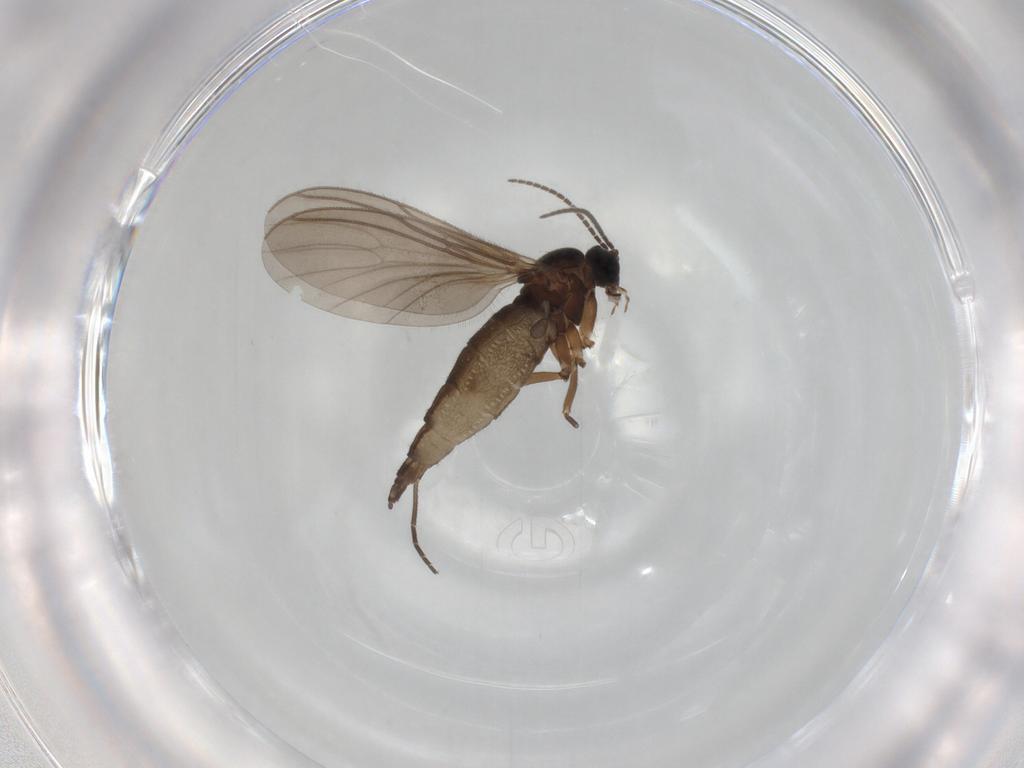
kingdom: Animalia
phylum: Arthropoda
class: Insecta
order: Diptera
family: Sciaridae
